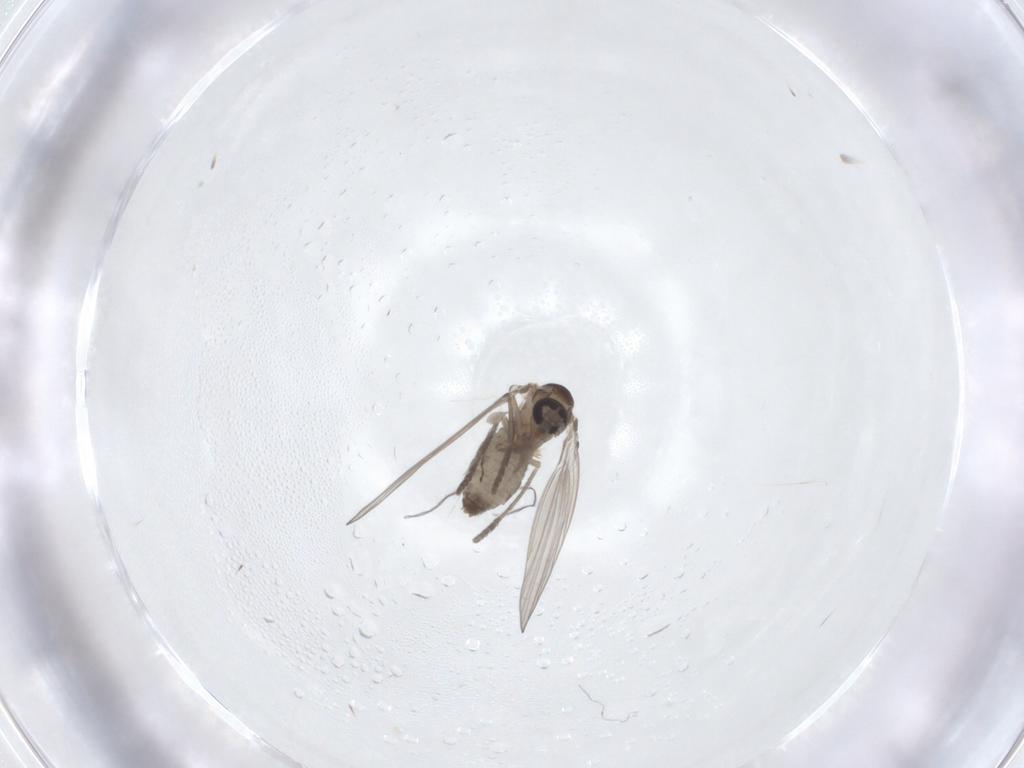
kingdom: Animalia
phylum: Arthropoda
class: Insecta
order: Diptera
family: Psychodidae
